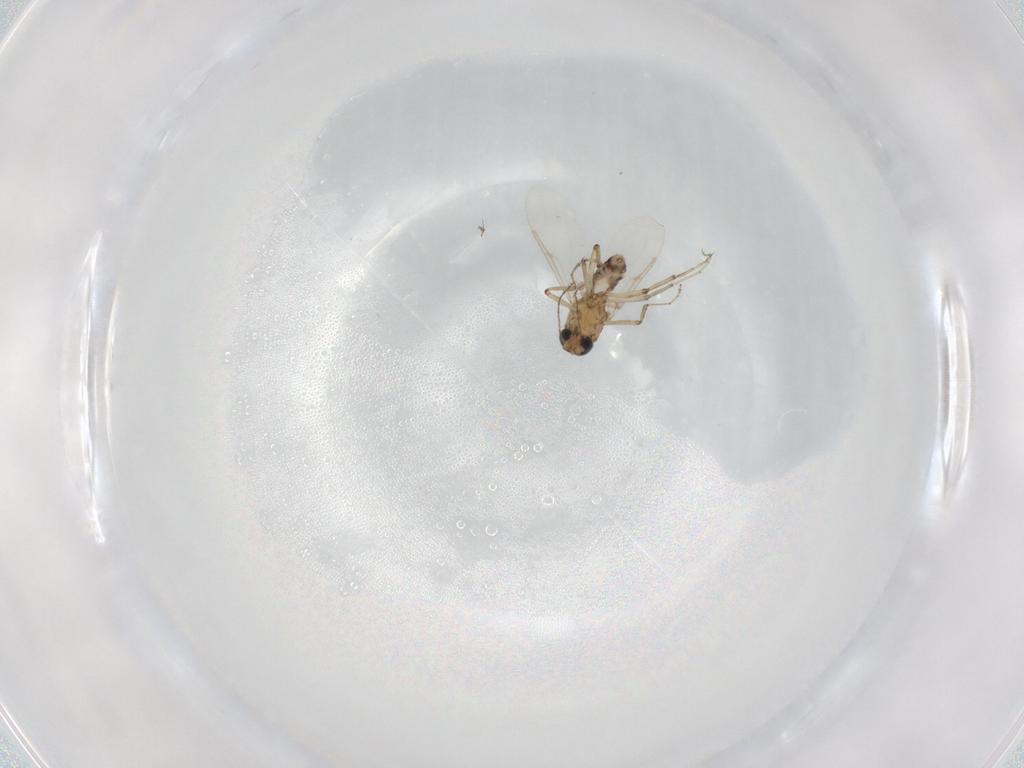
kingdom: Animalia
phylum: Arthropoda
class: Insecta
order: Diptera
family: Ceratopogonidae
